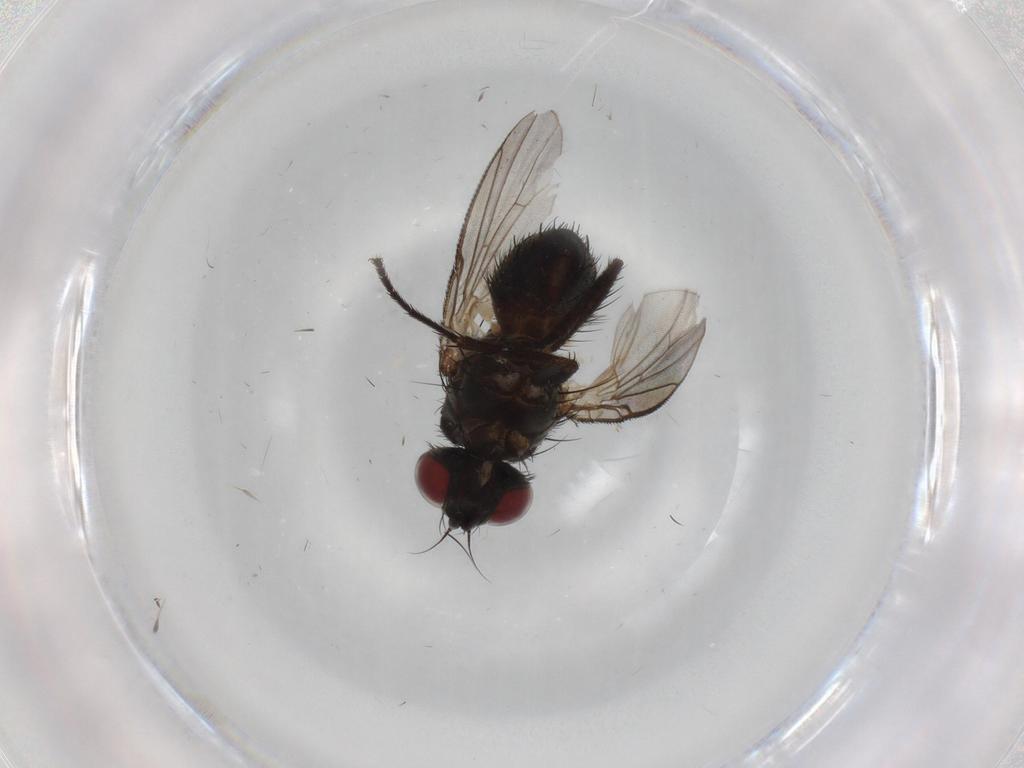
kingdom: Animalia
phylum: Arthropoda
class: Insecta
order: Diptera
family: Muscidae
